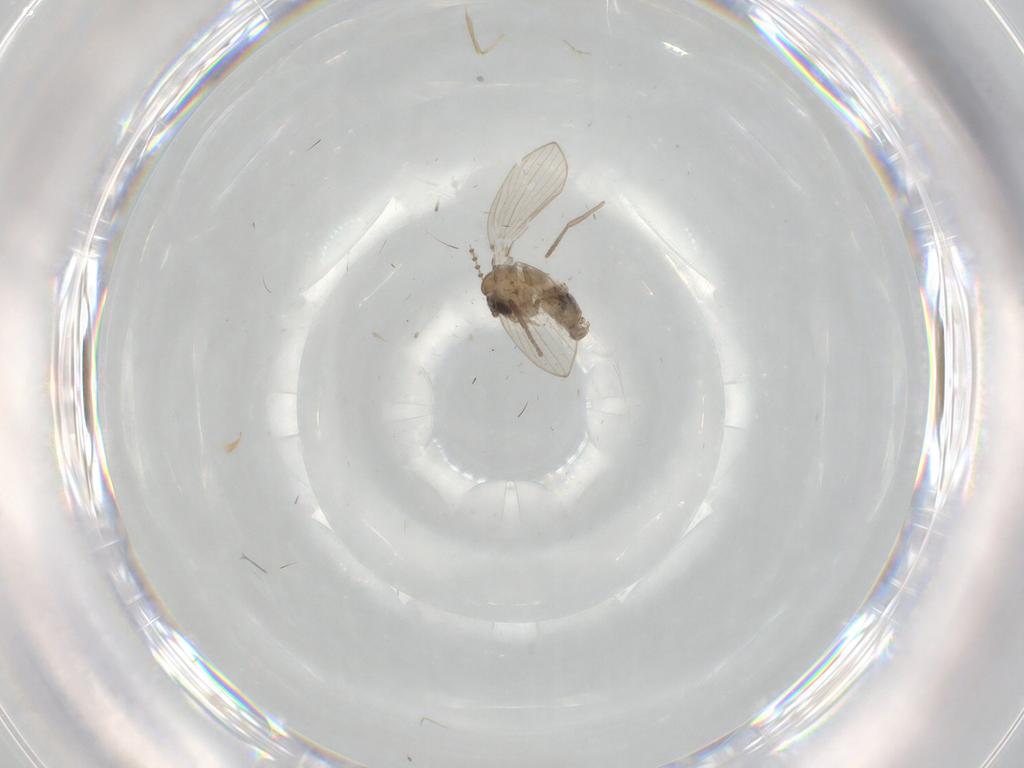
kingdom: Animalia
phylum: Arthropoda
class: Insecta
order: Diptera
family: Psychodidae
